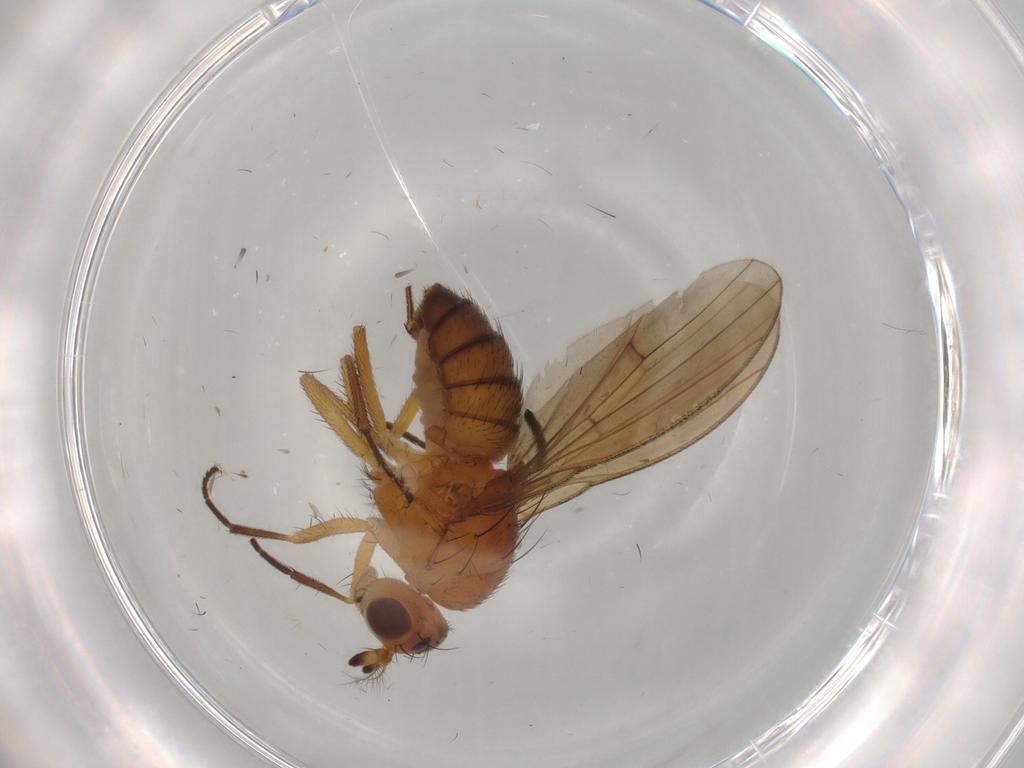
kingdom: Animalia
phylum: Arthropoda
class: Insecta
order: Diptera
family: Lauxaniidae
